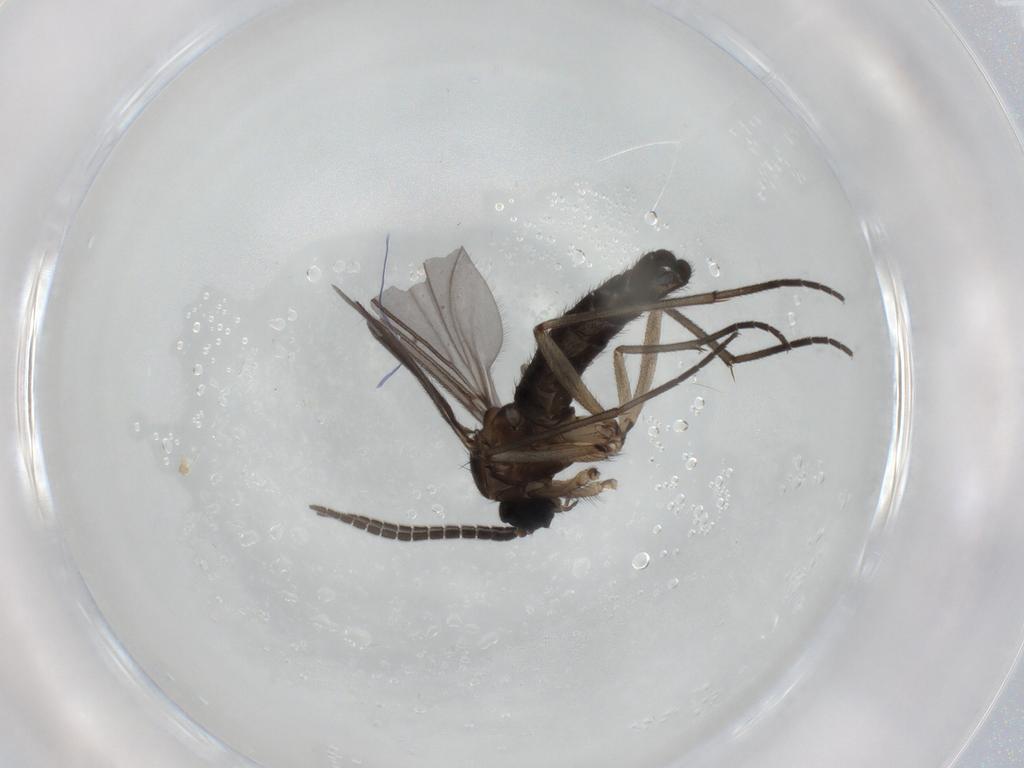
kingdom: Animalia
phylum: Arthropoda
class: Insecta
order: Diptera
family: Sciaridae
